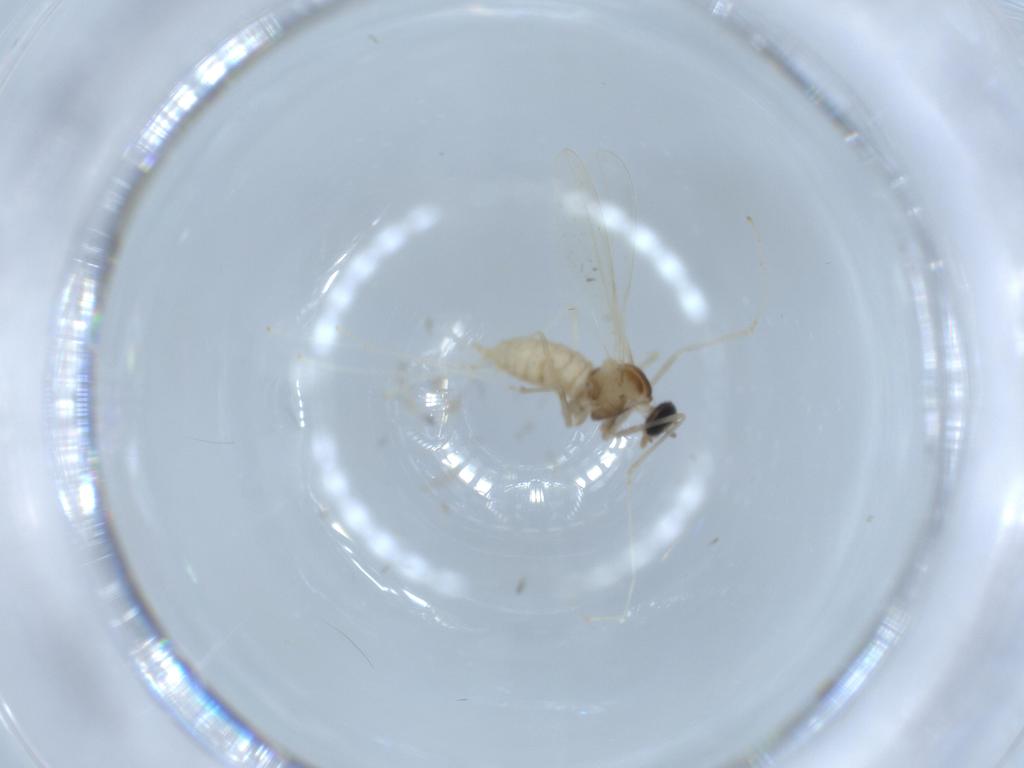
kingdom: Animalia
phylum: Arthropoda
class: Insecta
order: Diptera
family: Cecidomyiidae
